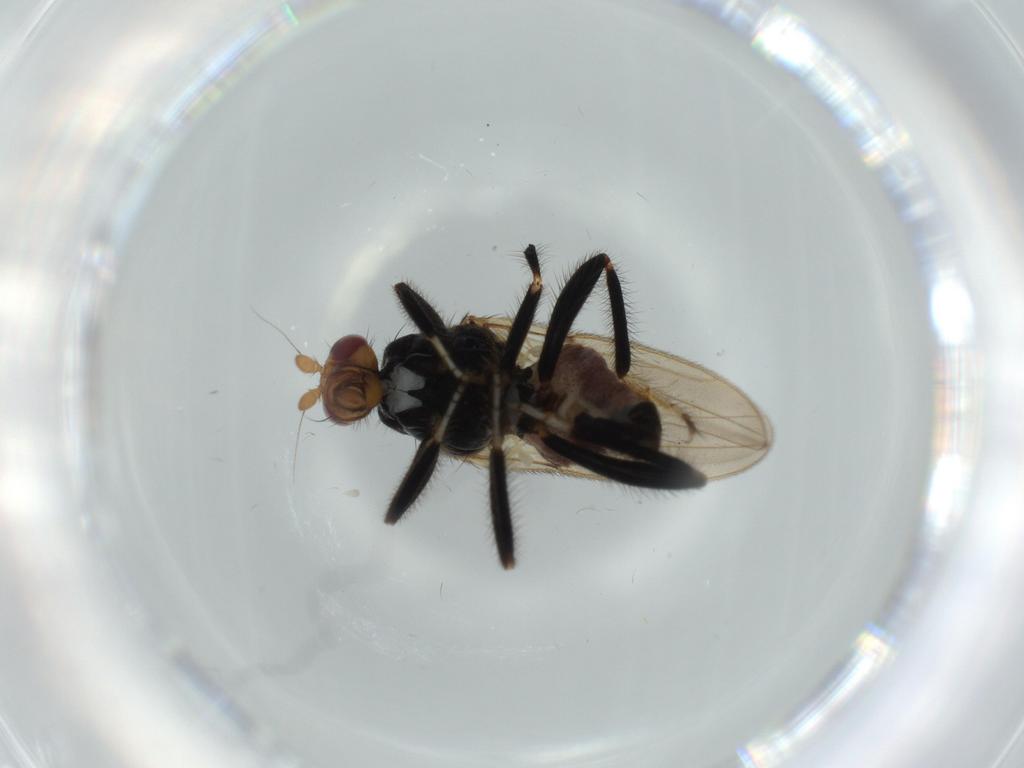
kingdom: Animalia
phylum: Arthropoda
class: Insecta
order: Diptera
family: Sphaeroceridae
